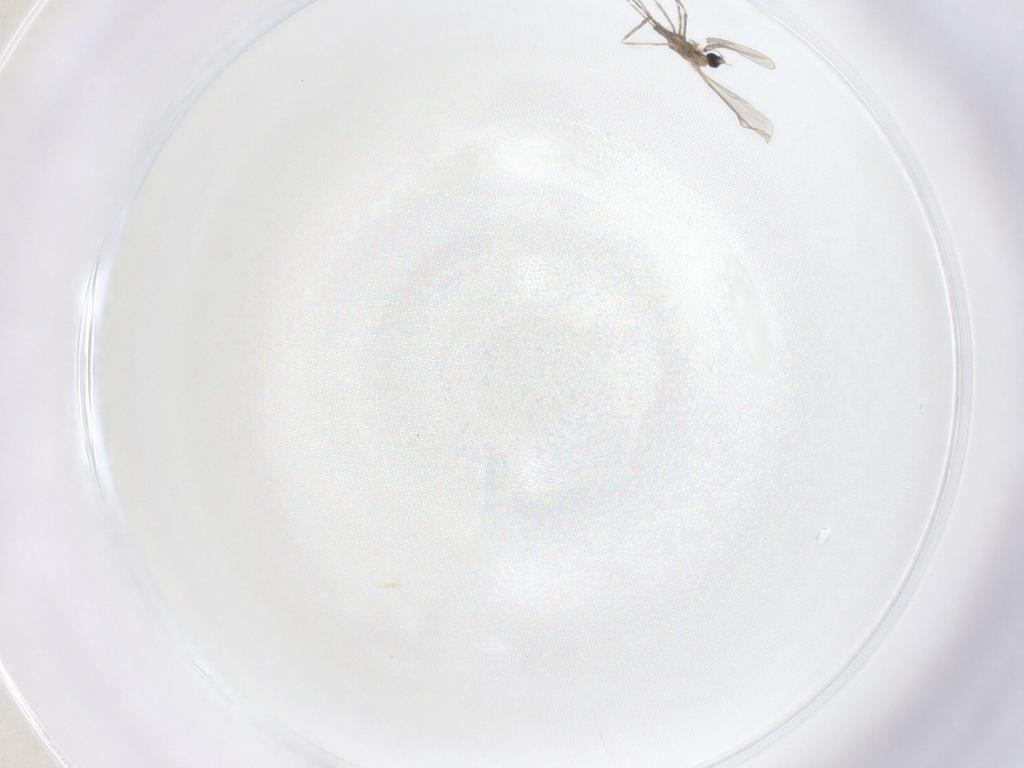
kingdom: Animalia
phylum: Arthropoda
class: Insecta
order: Diptera
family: Cecidomyiidae
